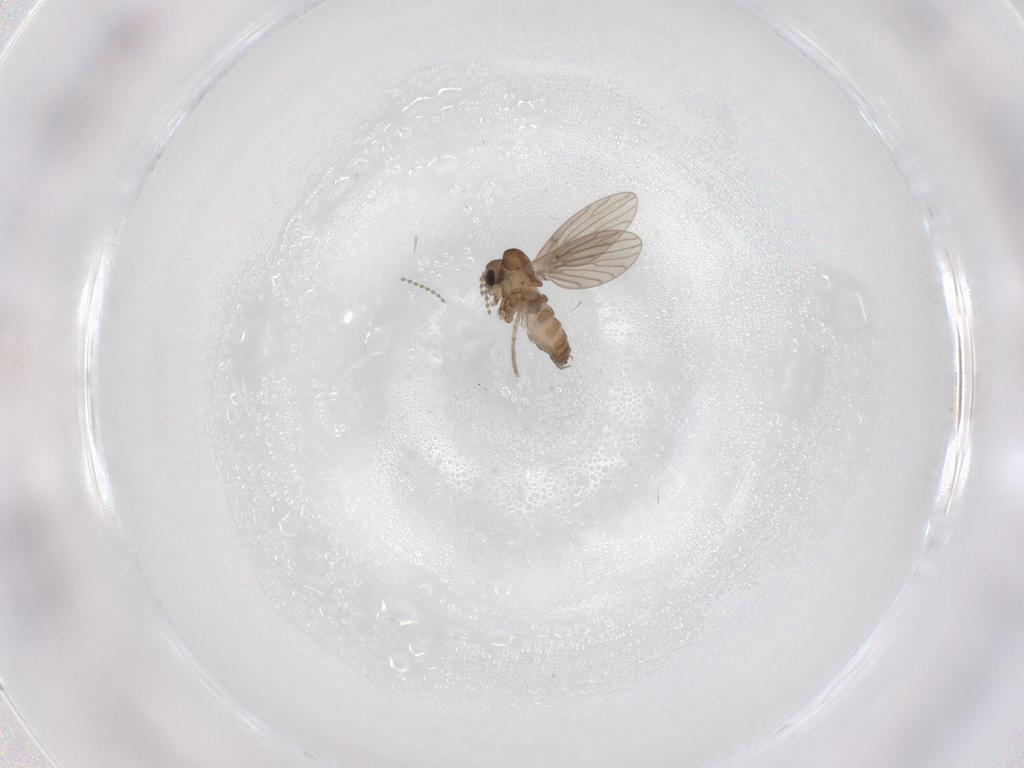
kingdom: Animalia
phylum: Arthropoda
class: Insecta
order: Diptera
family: Psychodidae
